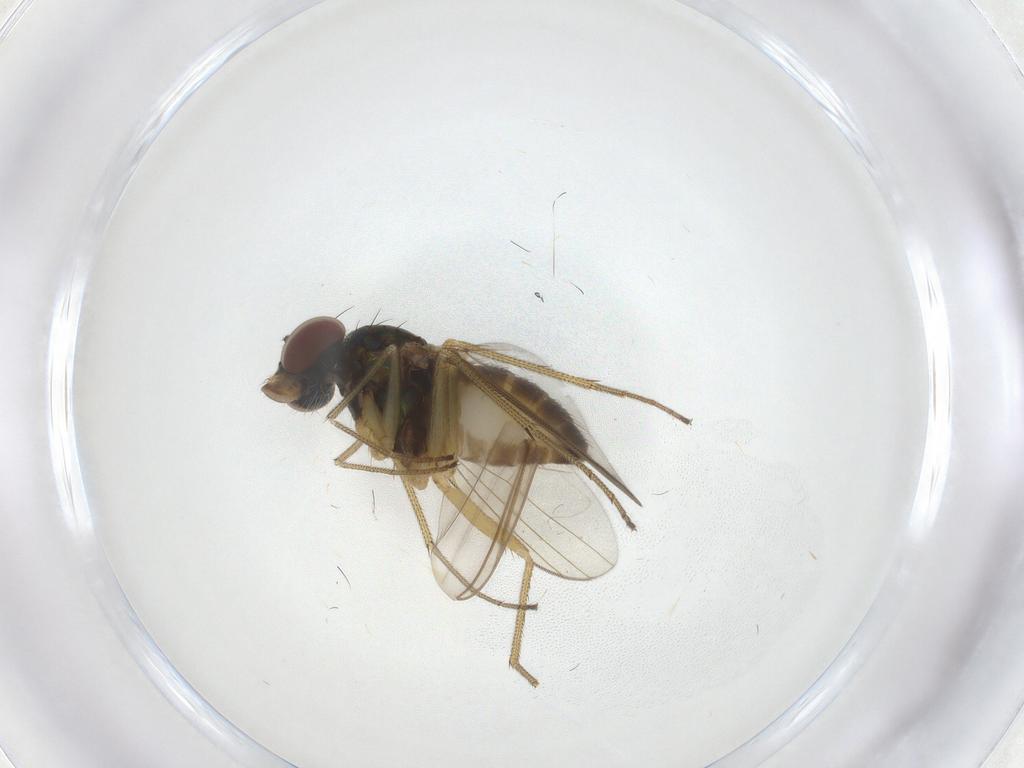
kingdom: Animalia
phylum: Arthropoda
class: Insecta
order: Diptera
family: Dolichopodidae
